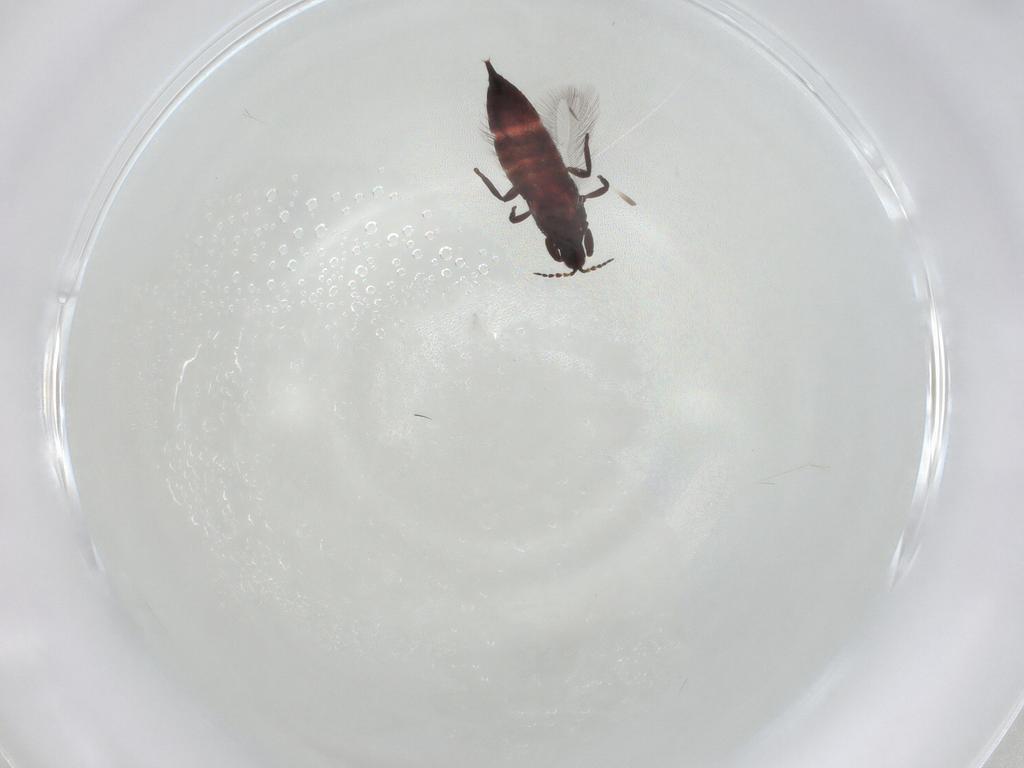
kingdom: Animalia
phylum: Arthropoda
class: Insecta
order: Thysanoptera
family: Phlaeothripidae
